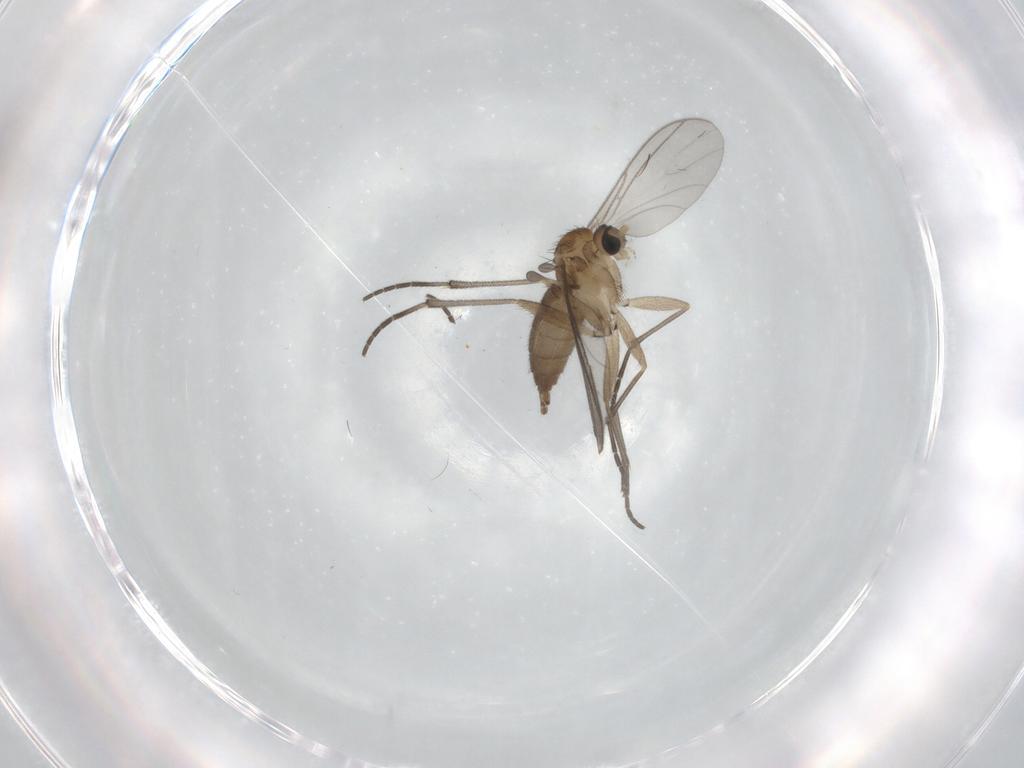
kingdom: Animalia
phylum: Arthropoda
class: Insecta
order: Diptera
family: Sciaridae
